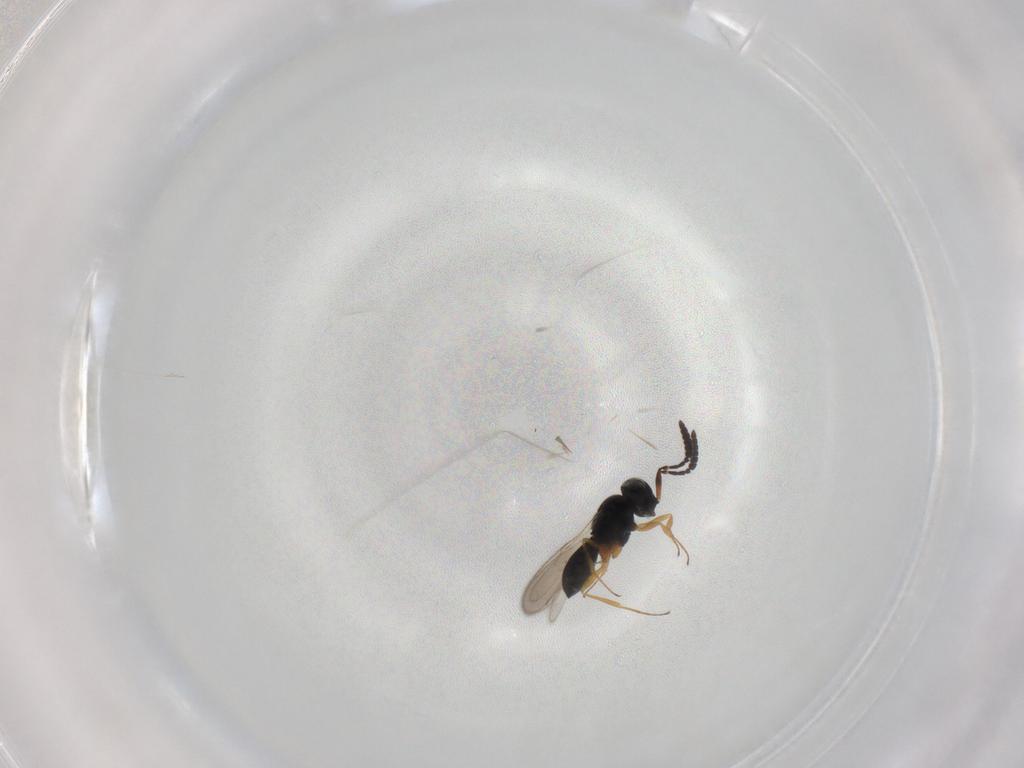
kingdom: Animalia
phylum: Arthropoda
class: Insecta
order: Hymenoptera
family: Scelionidae
